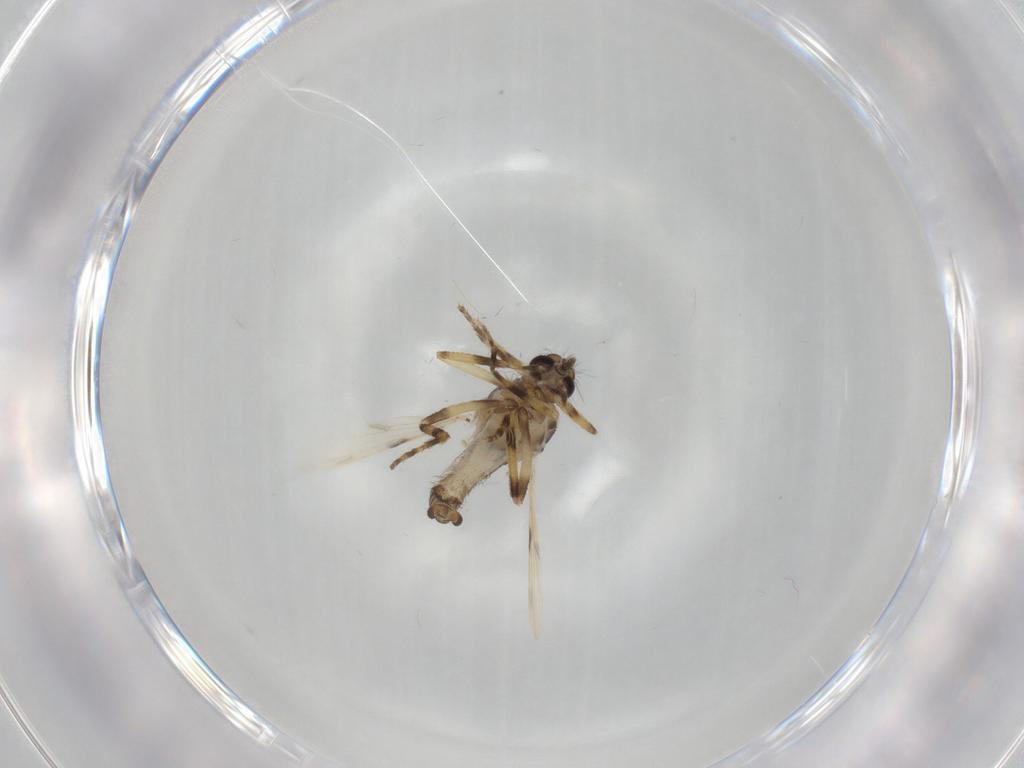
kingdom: Animalia
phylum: Arthropoda
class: Insecta
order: Diptera
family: Ceratopogonidae
